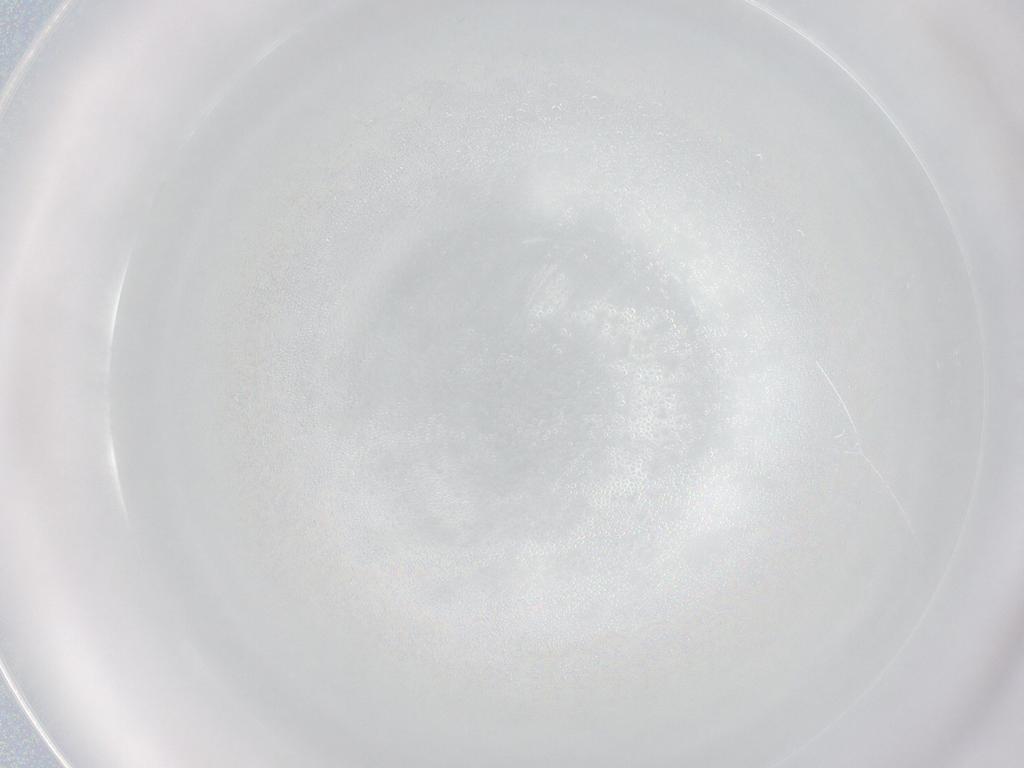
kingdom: Animalia
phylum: Arthropoda
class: Insecta
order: Hymenoptera
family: Formicidae
